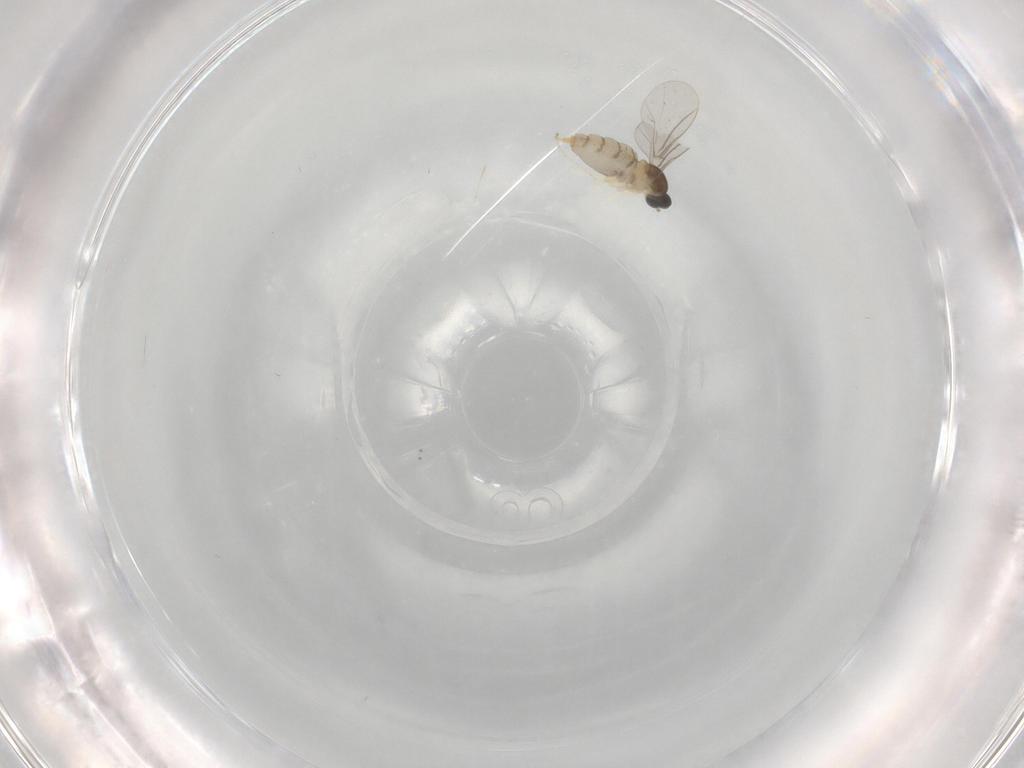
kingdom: Animalia
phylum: Arthropoda
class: Insecta
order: Diptera
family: Cecidomyiidae
